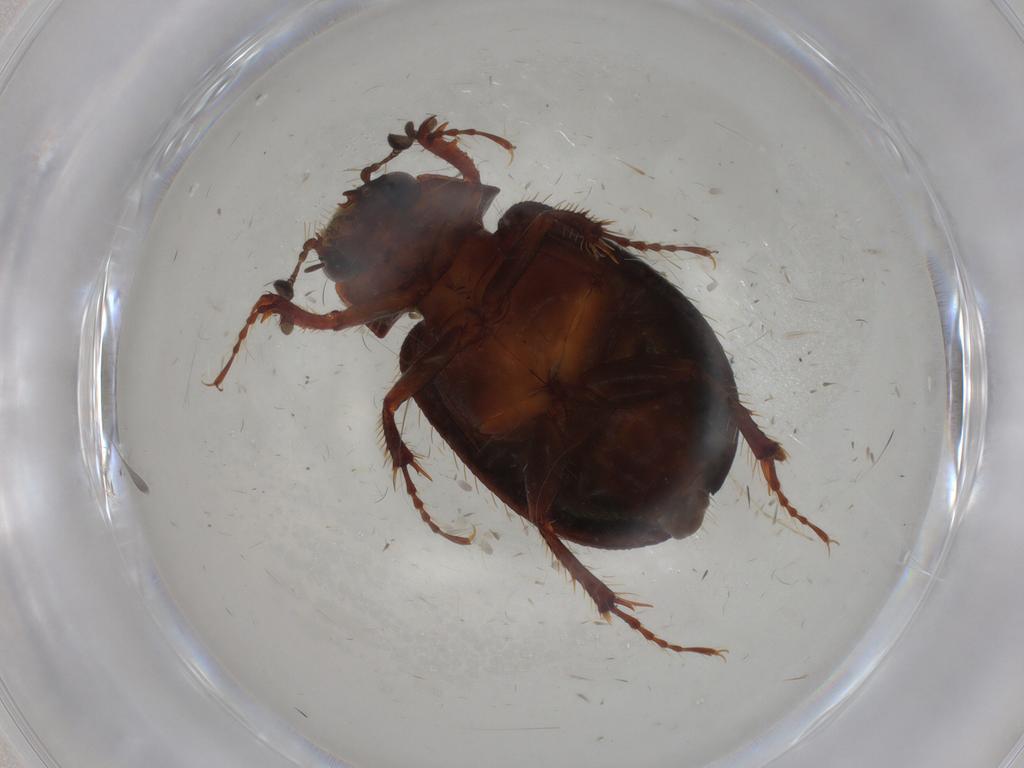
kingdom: Animalia
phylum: Arthropoda
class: Insecta
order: Coleoptera
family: Endomychidae
